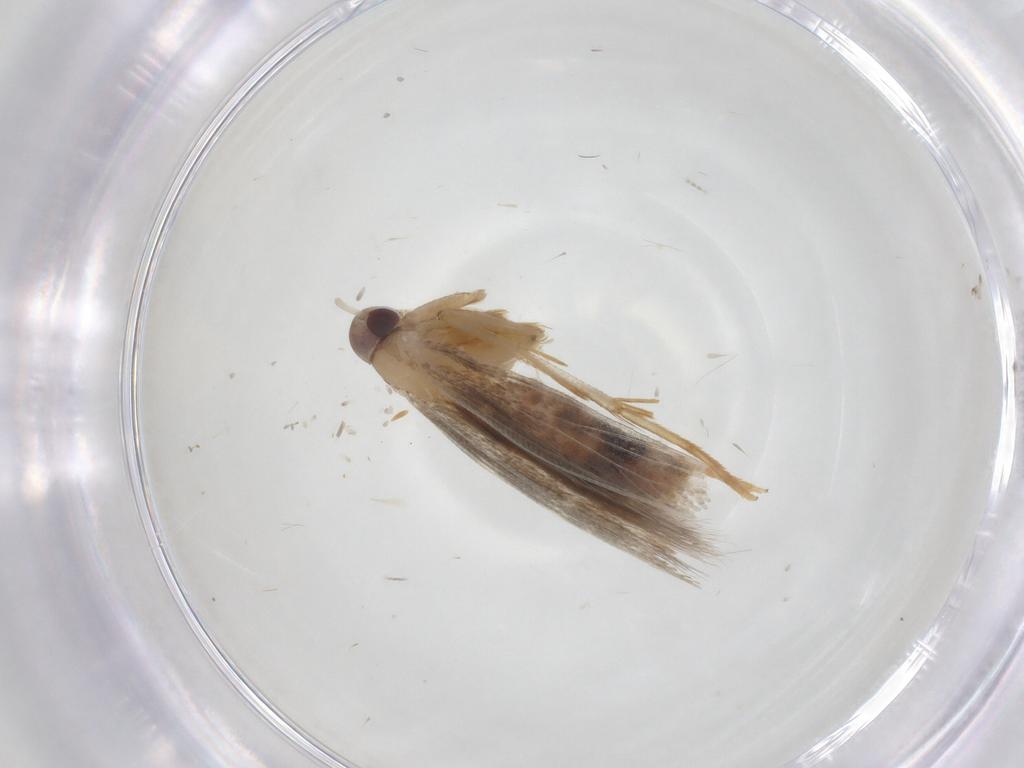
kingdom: Animalia
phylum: Arthropoda
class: Insecta
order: Lepidoptera
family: Cosmopterigidae
